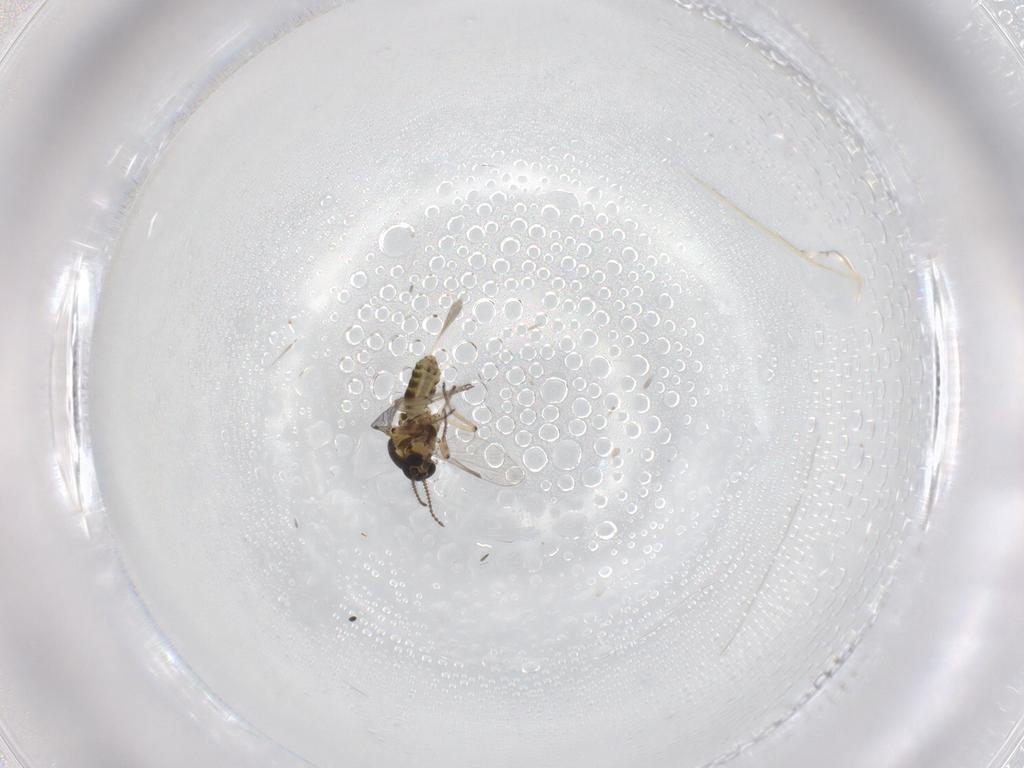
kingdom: Animalia
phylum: Arthropoda
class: Insecta
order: Diptera
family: Ceratopogonidae
